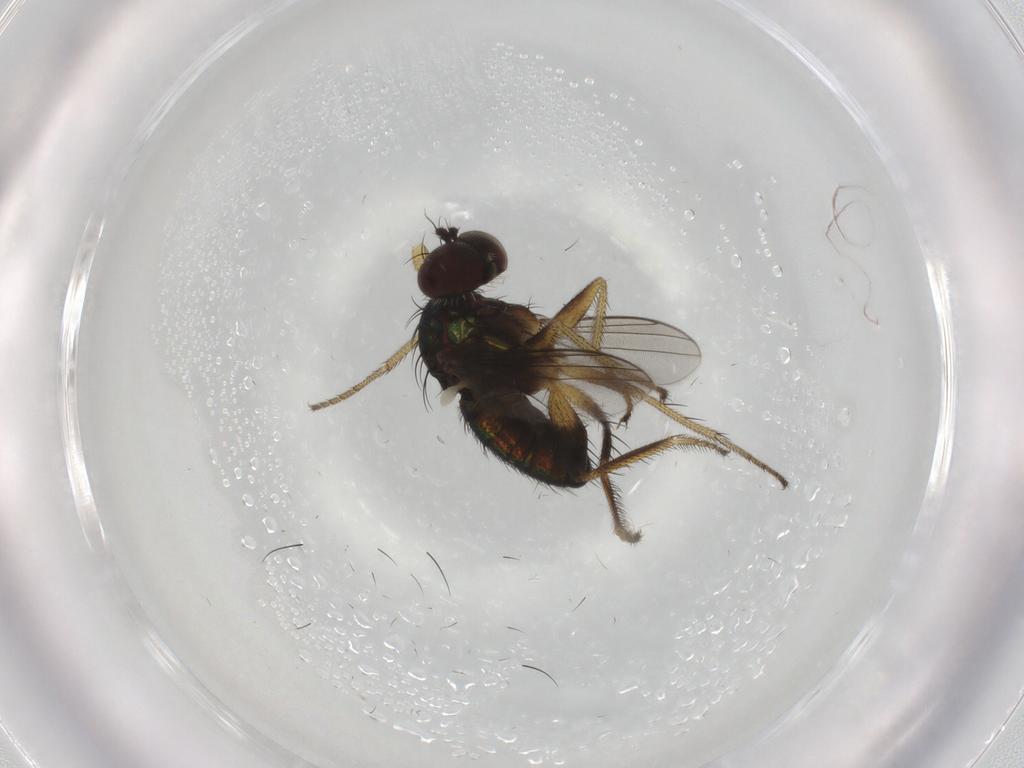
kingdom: Animalia
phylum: Arthropoda
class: Insecta
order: Diptera
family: Dolichopodidae
